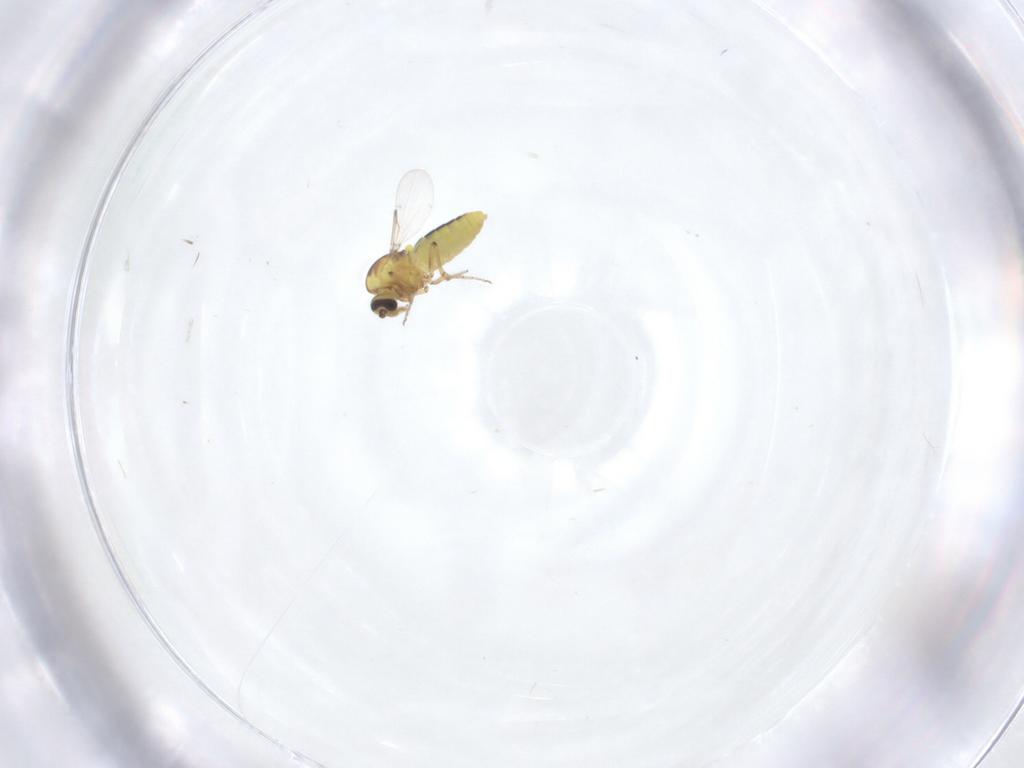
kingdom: Animalia
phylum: Arthropoda
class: Insecta
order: Diptera
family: Ceratopogonidae
